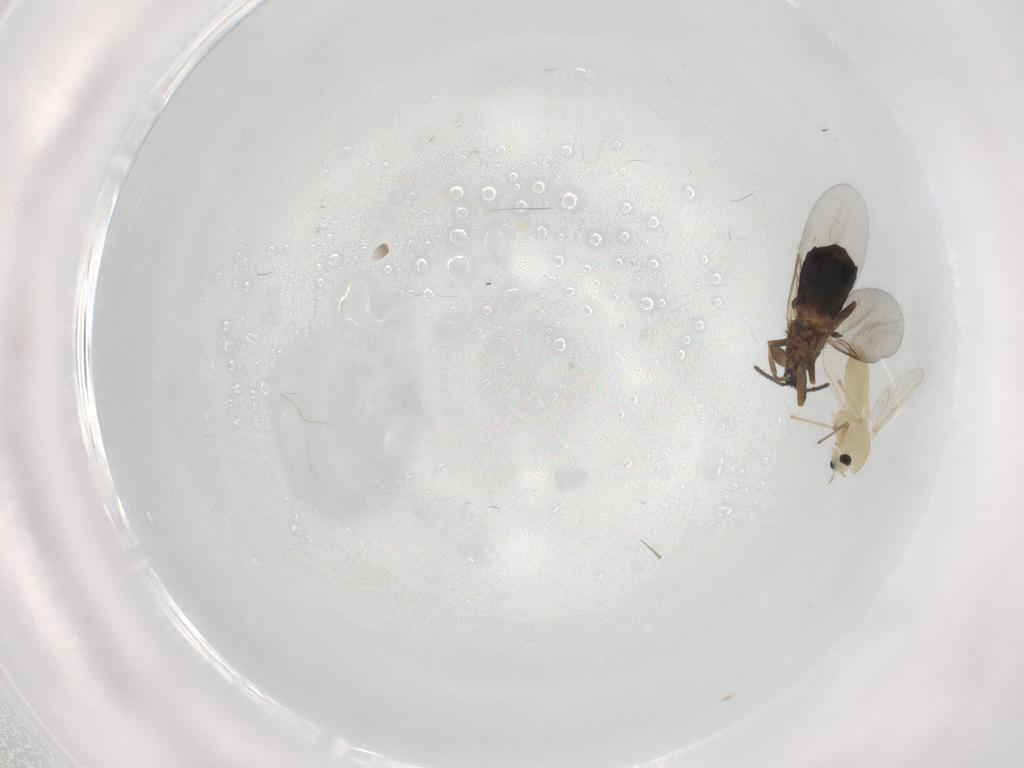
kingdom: Animalia
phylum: Arthropoda
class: Insecta
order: Diptera
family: Chironomidae
